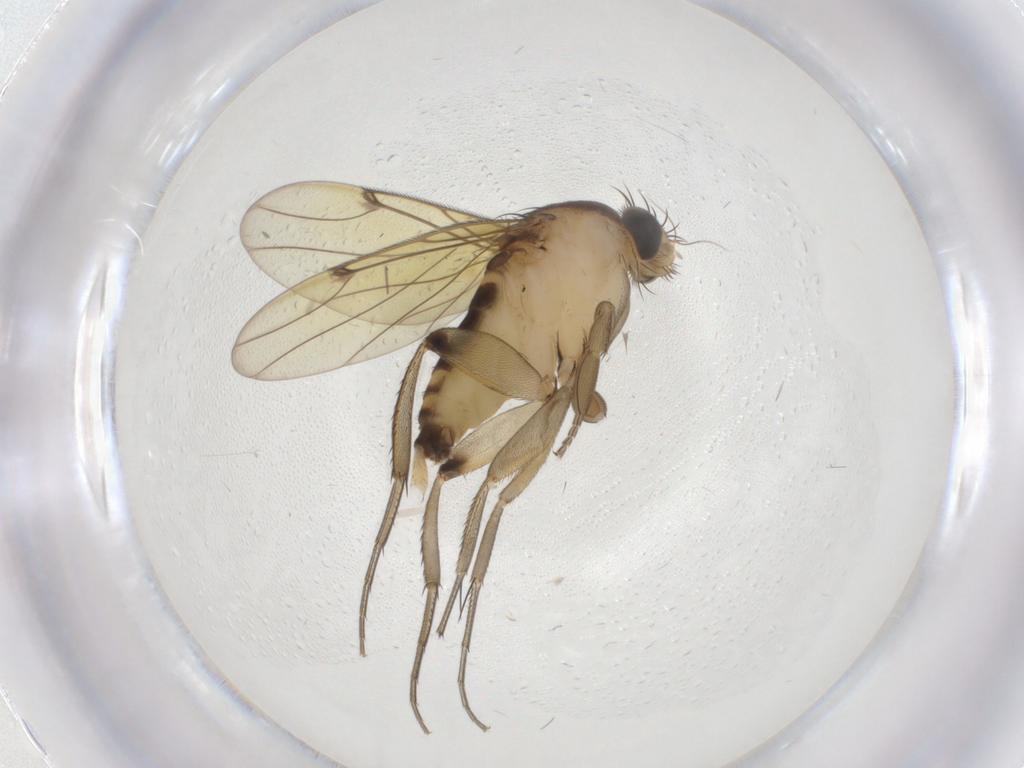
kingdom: Animalia
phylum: Arthropoda
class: Insecta
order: Diptera
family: Phoridae
